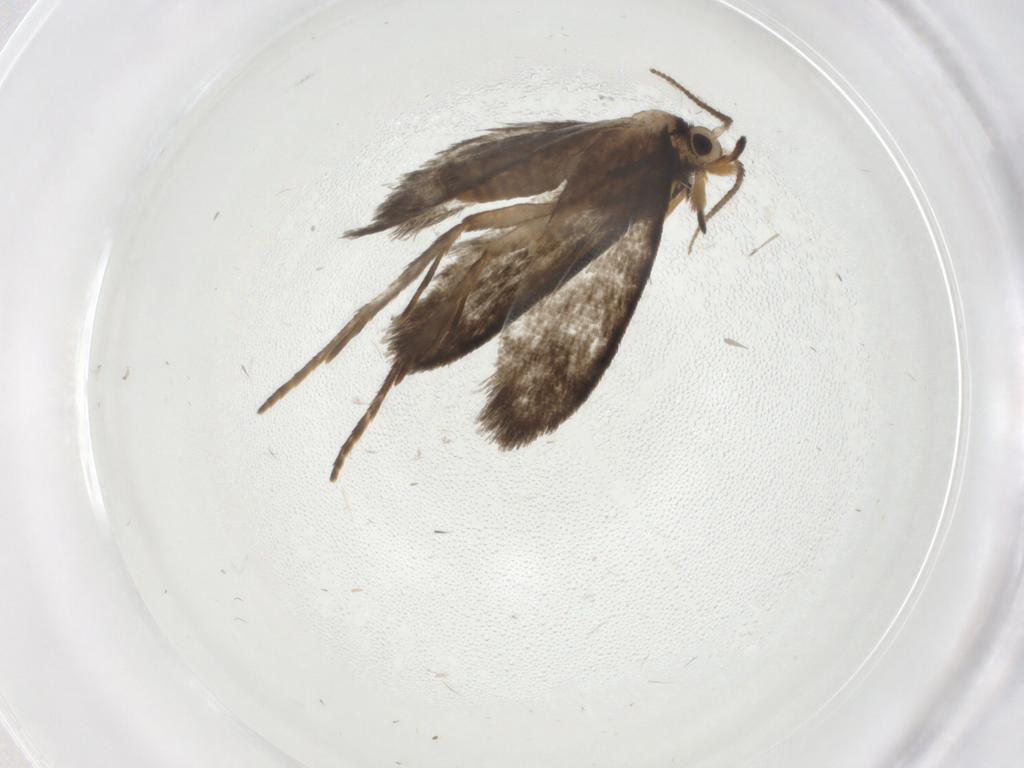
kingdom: Animalia
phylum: Arthropoda
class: Insecta
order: Lepidoptera
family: Psychidae
